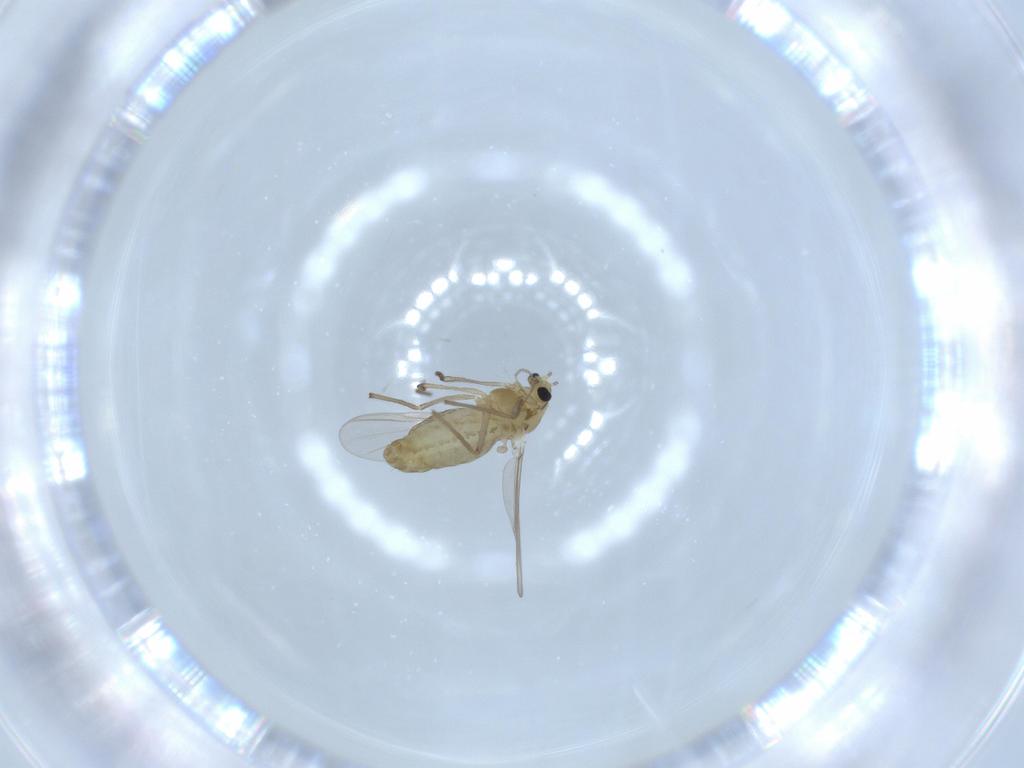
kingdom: Animalia
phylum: Arthropoda
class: Insecta
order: Diptera
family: Chironomidae
